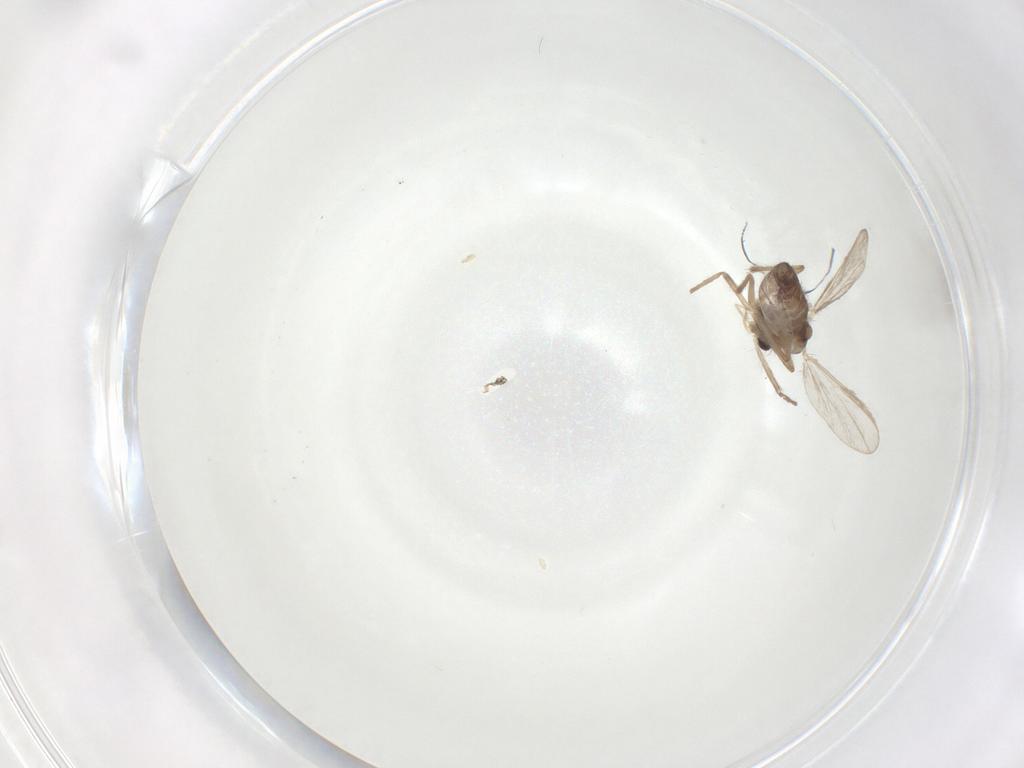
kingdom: Animalia
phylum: Arthropoda
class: Insecta
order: Diptera
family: Chironomidae
